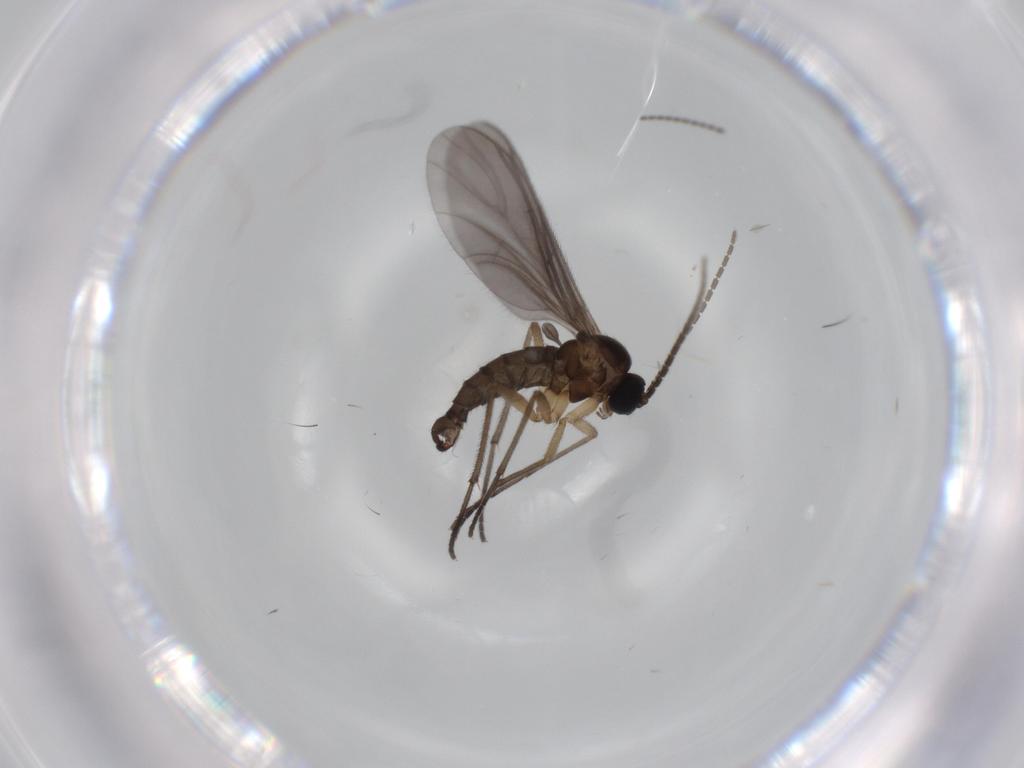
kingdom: Animalia
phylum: Arthropoda
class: Insecta
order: Diptera
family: Sciaridae
